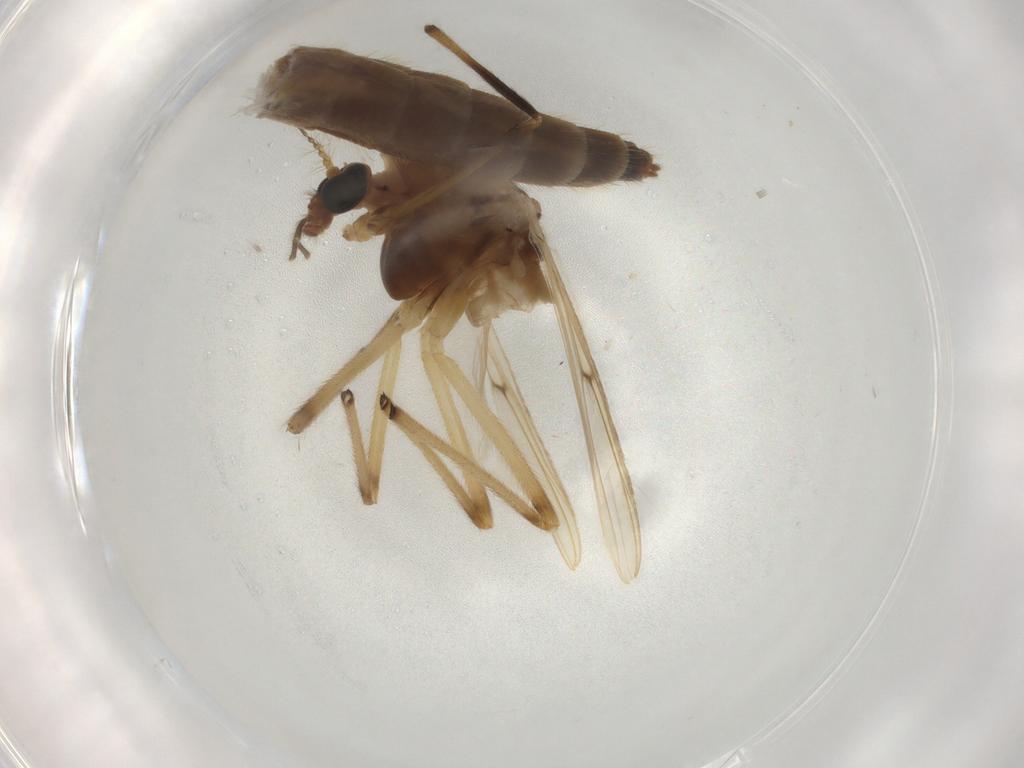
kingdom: Animalia
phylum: Arthropoda
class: Insecta
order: Diptera
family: Chironomidae
